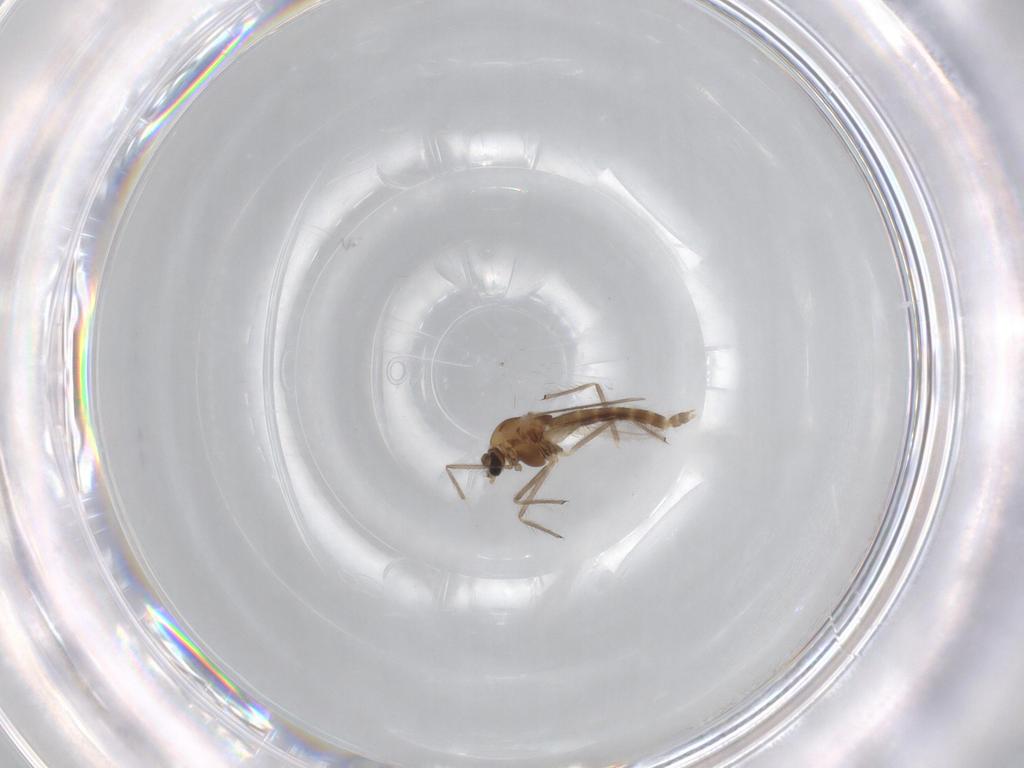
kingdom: Animalia
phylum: Arthropoda
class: Insecta
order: Diptera
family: Chironomidae
